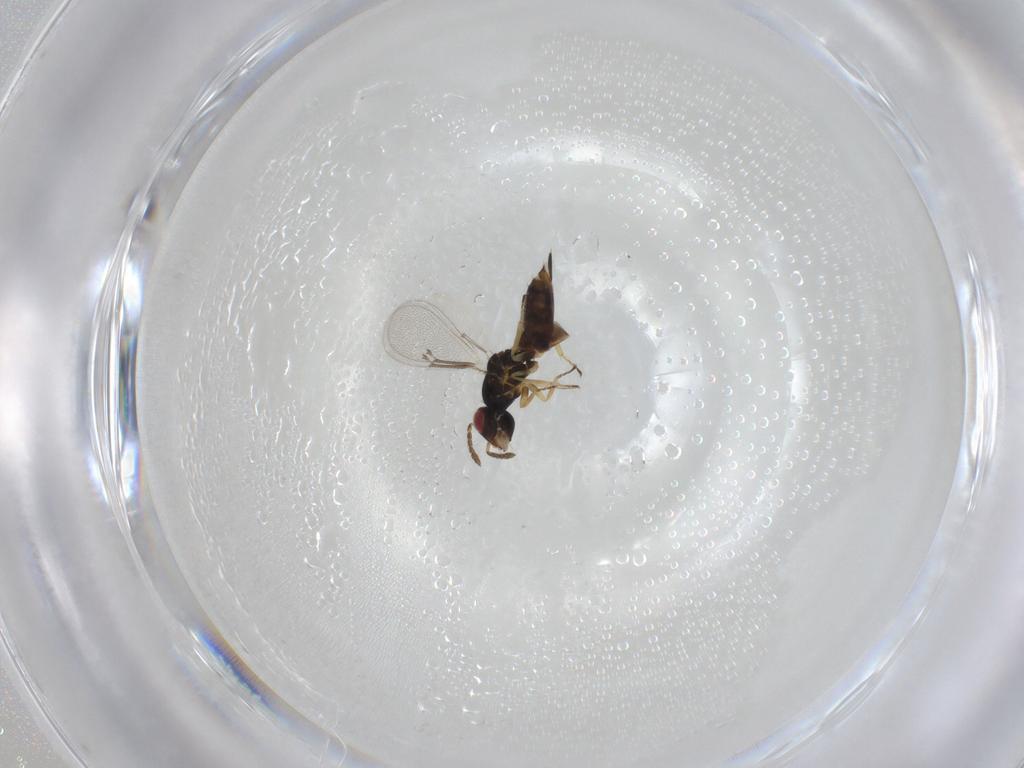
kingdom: Animalia
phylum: Arthropoda
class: Insecta
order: Hymenoptera
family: Eulophidae
